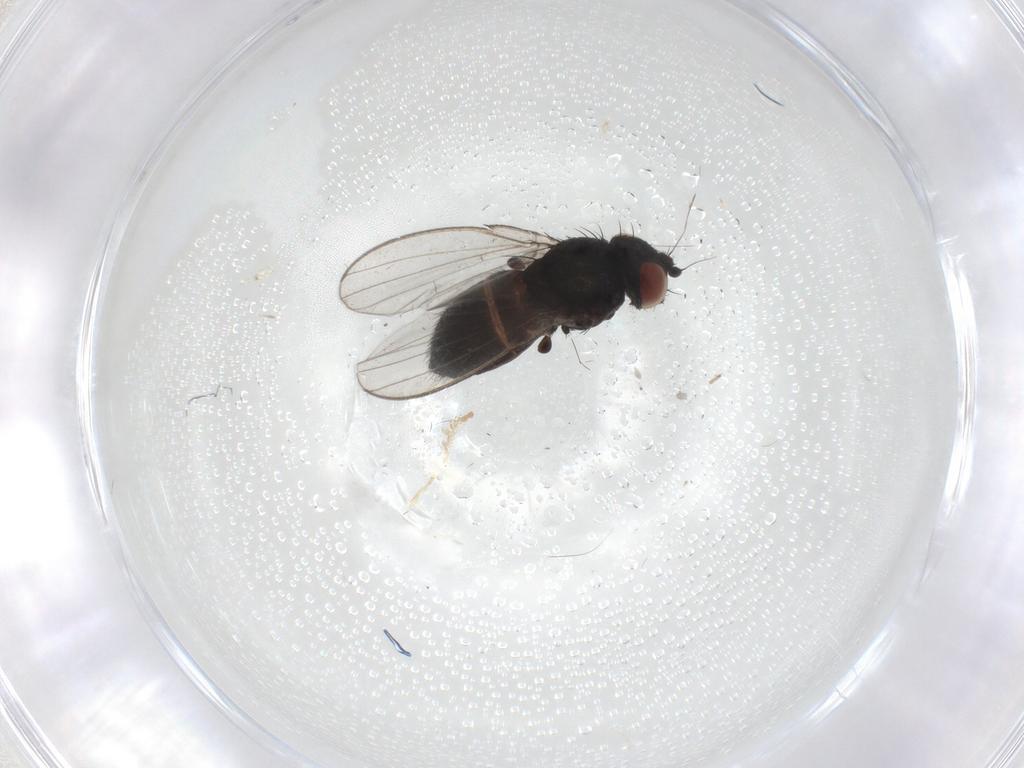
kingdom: Animalia
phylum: Arthropoda
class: Insecta
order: Diptera
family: Milichiidae
